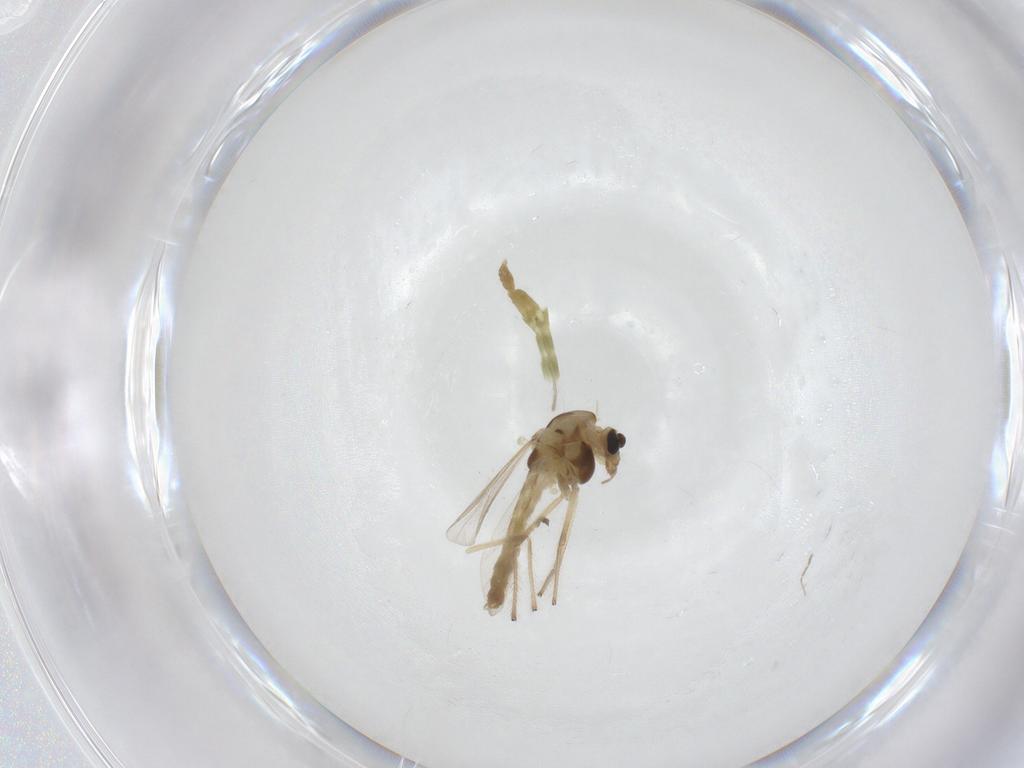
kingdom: Animalia
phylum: Arthropoda
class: Insecta
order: Diptera
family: Chironomidae
